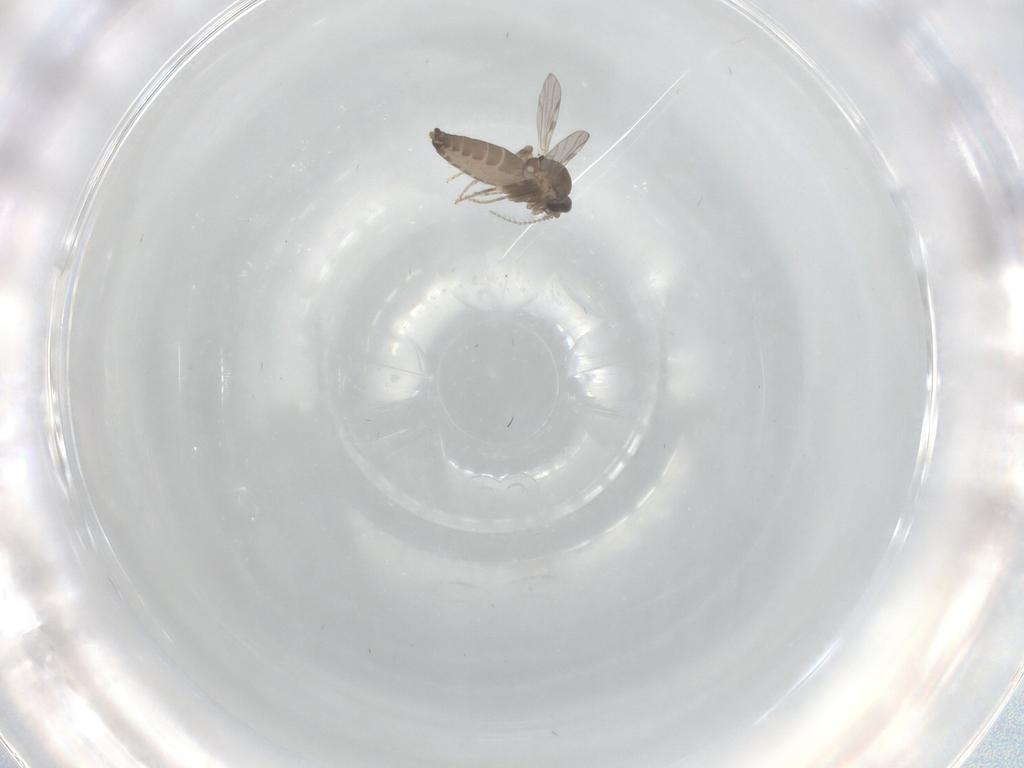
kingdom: Animalia
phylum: Arthropoda
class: Insecta
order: Diptera
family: Ceratopogonidae
